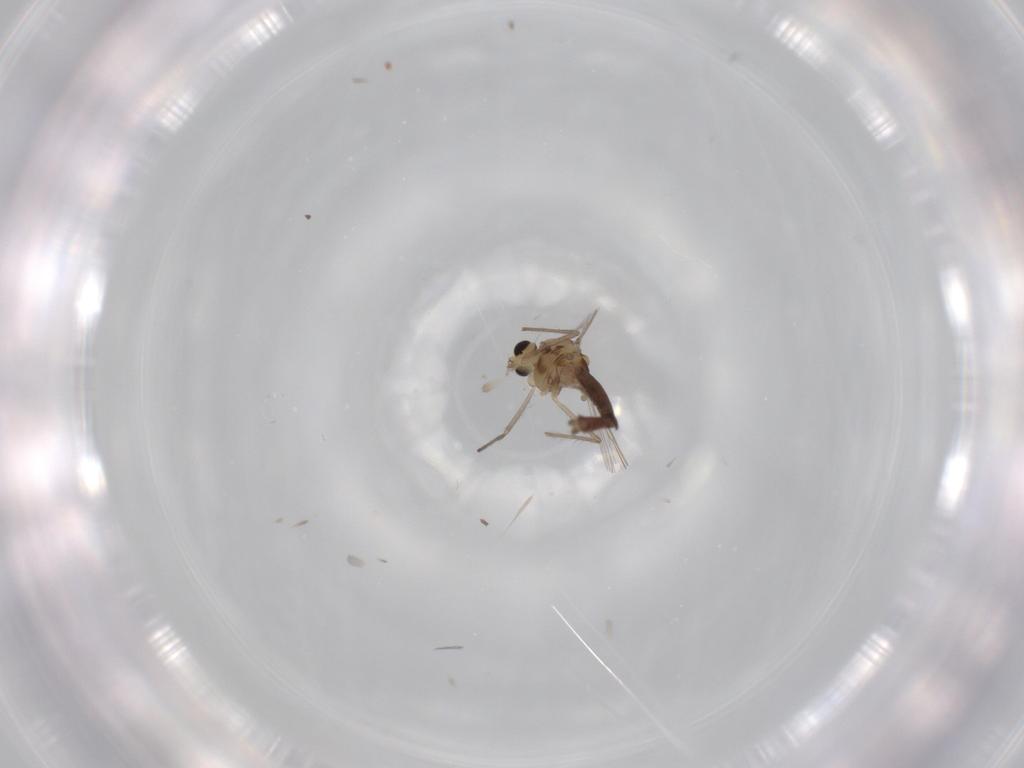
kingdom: Animalia
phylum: Arthropoda
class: Insecta
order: Diptera
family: Chironomidae
